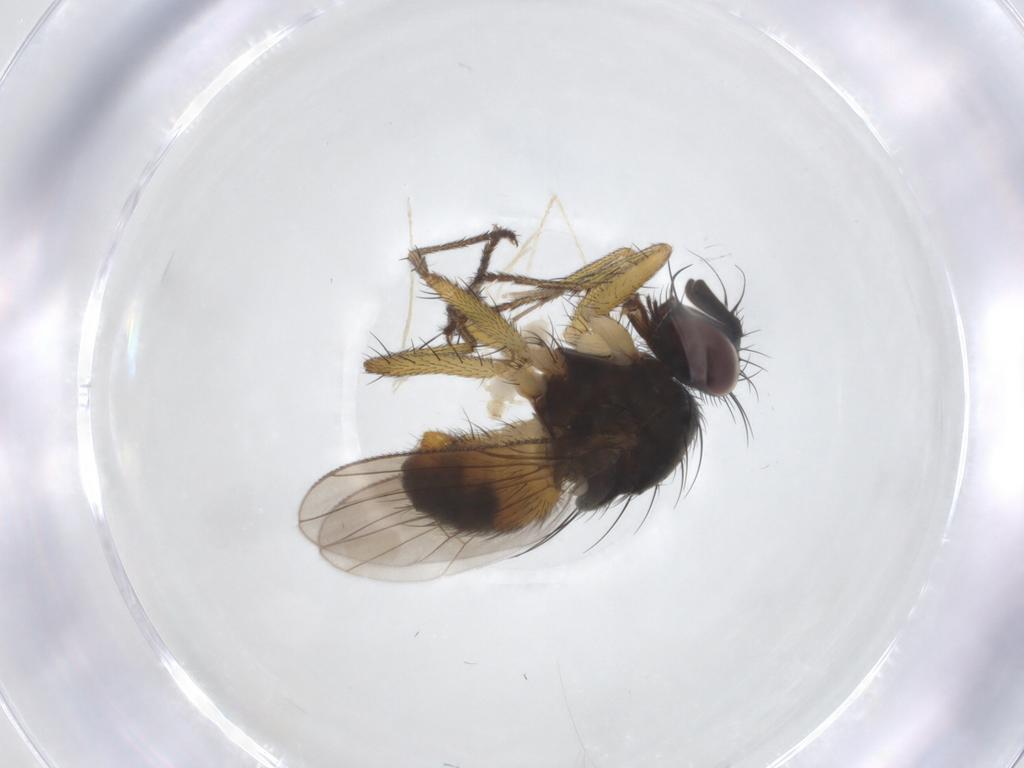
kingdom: Animalia
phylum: Arthropoda
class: Insecta
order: Diptera
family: Muscidae
